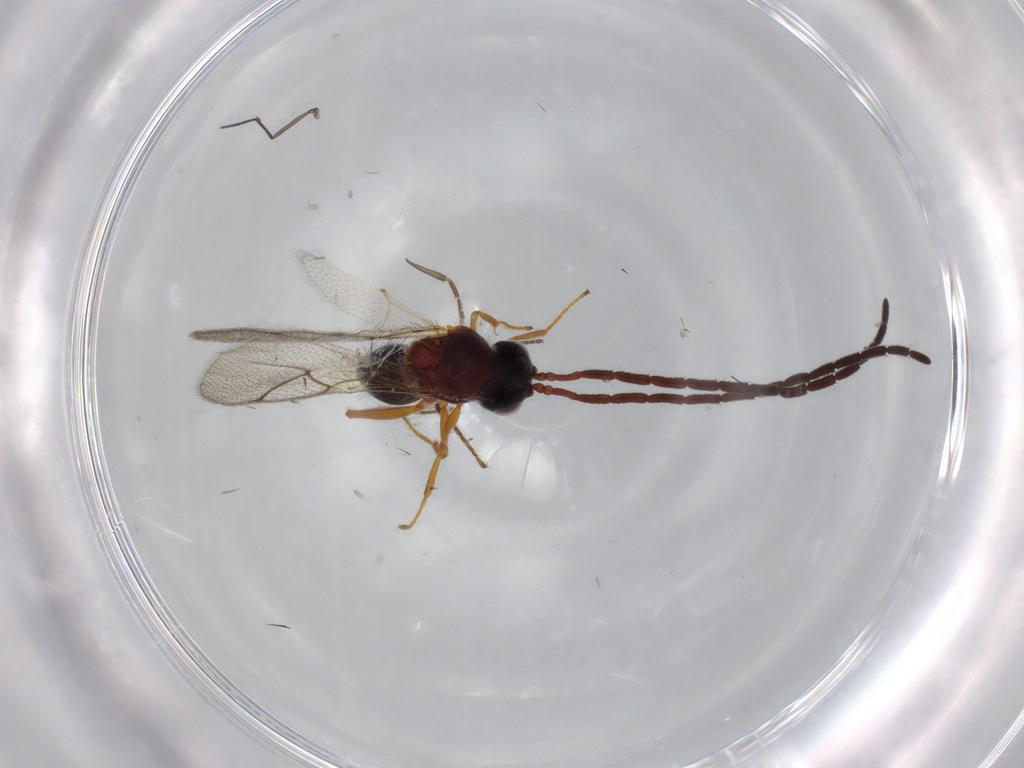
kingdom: Animalia
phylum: Arthropoda
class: Insecta
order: Hymenoptera
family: Figitidae
